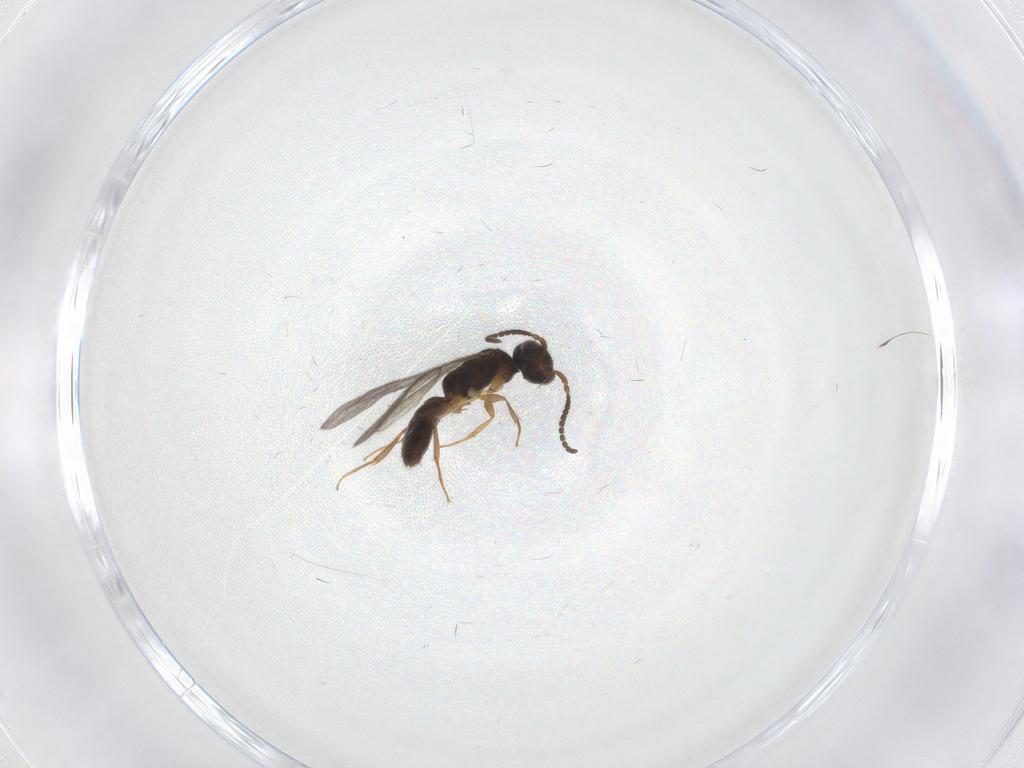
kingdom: Animalia
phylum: Arthropoda
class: Insecta
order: Hymenoptera
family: Bethylidae
